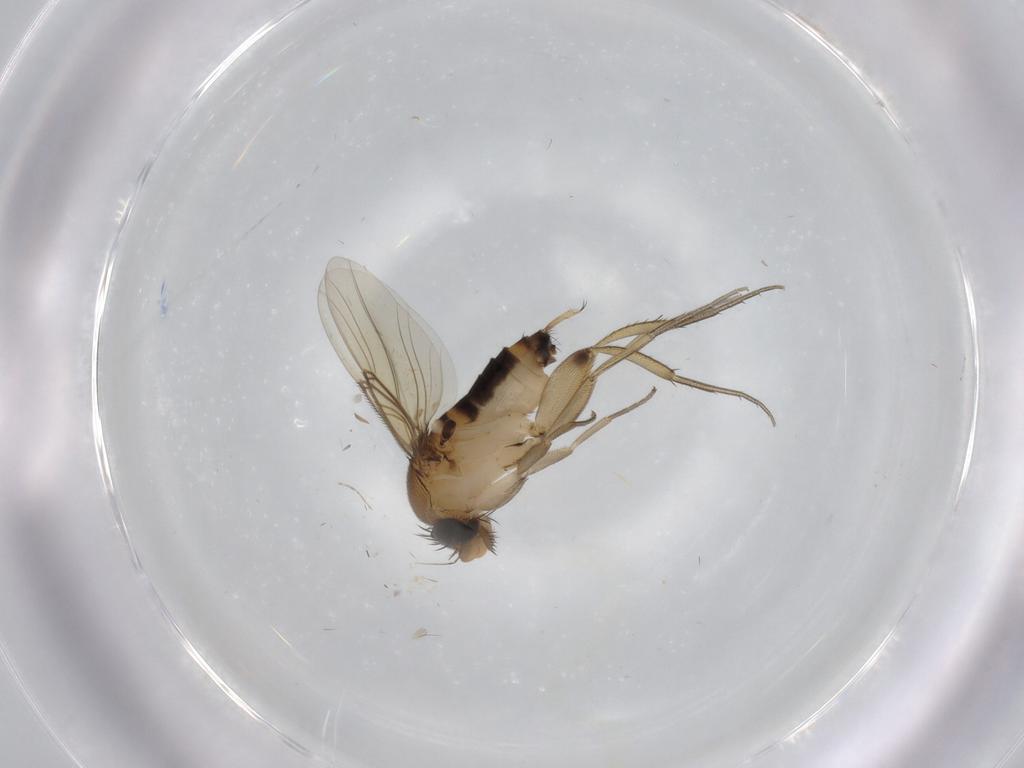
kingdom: Animalia
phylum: Arthropoda
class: Insecta
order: Diptera
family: Phoridae
